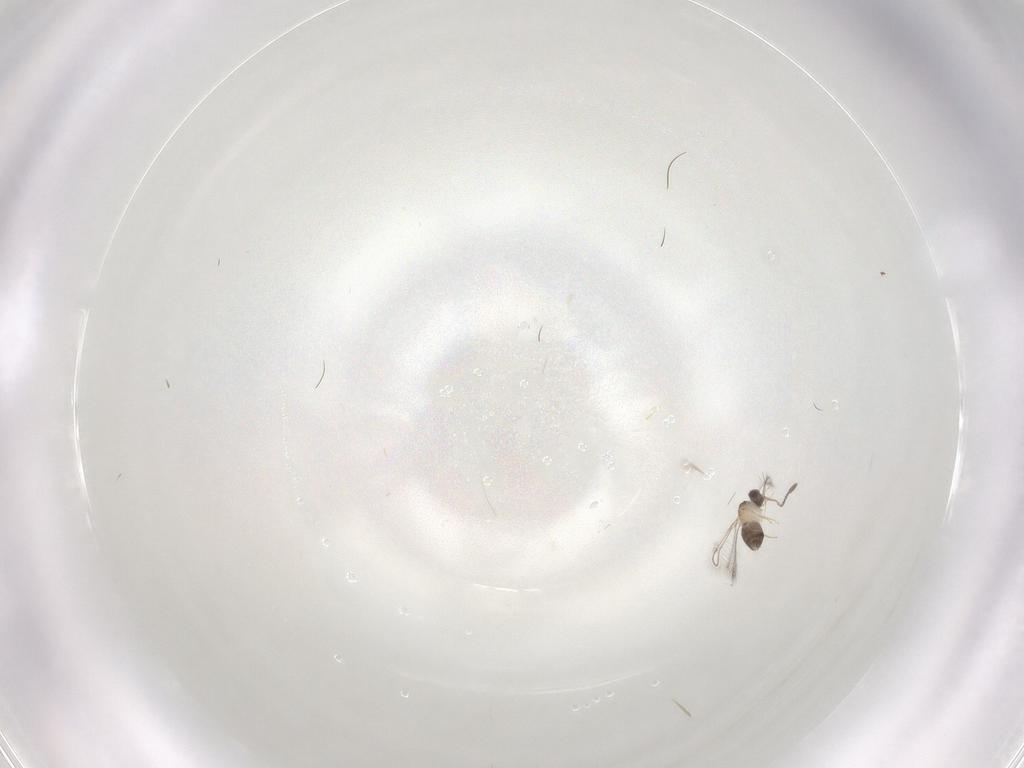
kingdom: Animalia
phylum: Arthropoda
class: Insecta
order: Hymenoptera
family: Mymaridae
